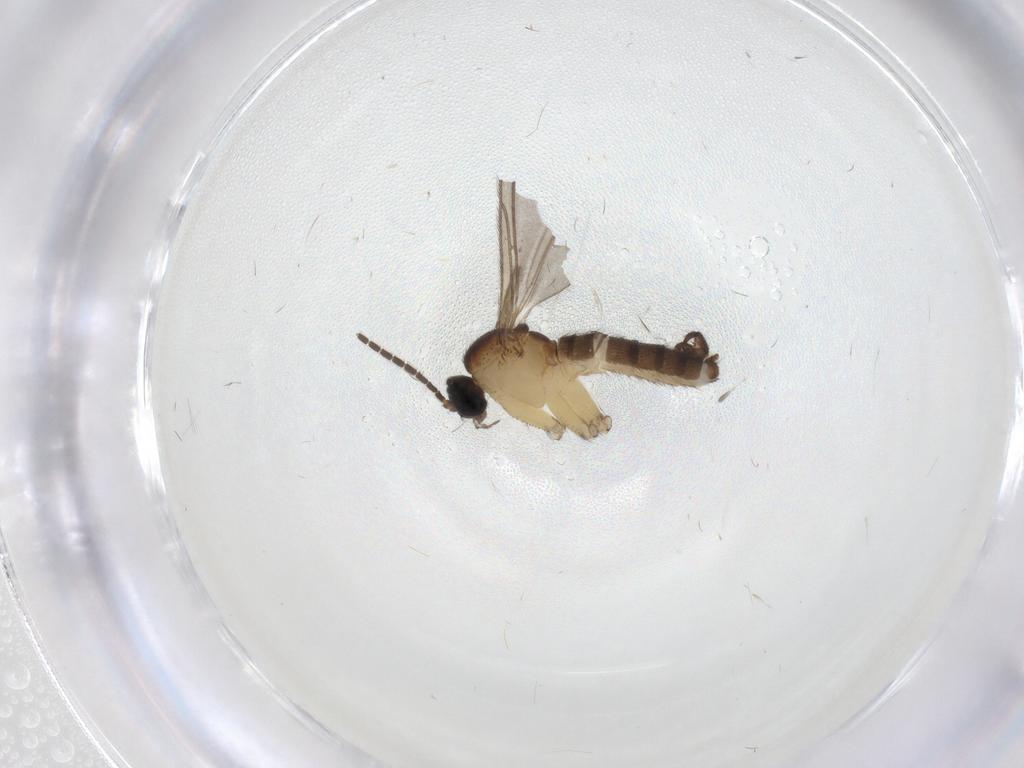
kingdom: Animalia
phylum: Arthropoda
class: Insecta
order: Diptera
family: Sciaridae
